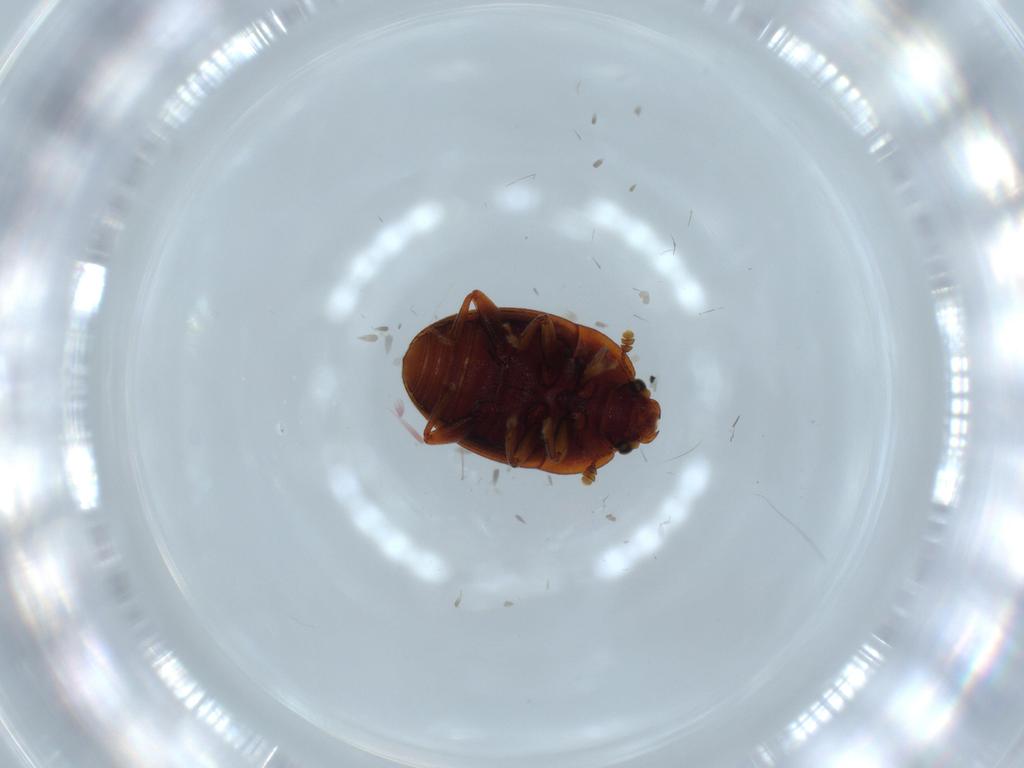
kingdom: Animalia
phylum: Arthropoda
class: Insecta
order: Coleoptera
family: Nitidulidae
